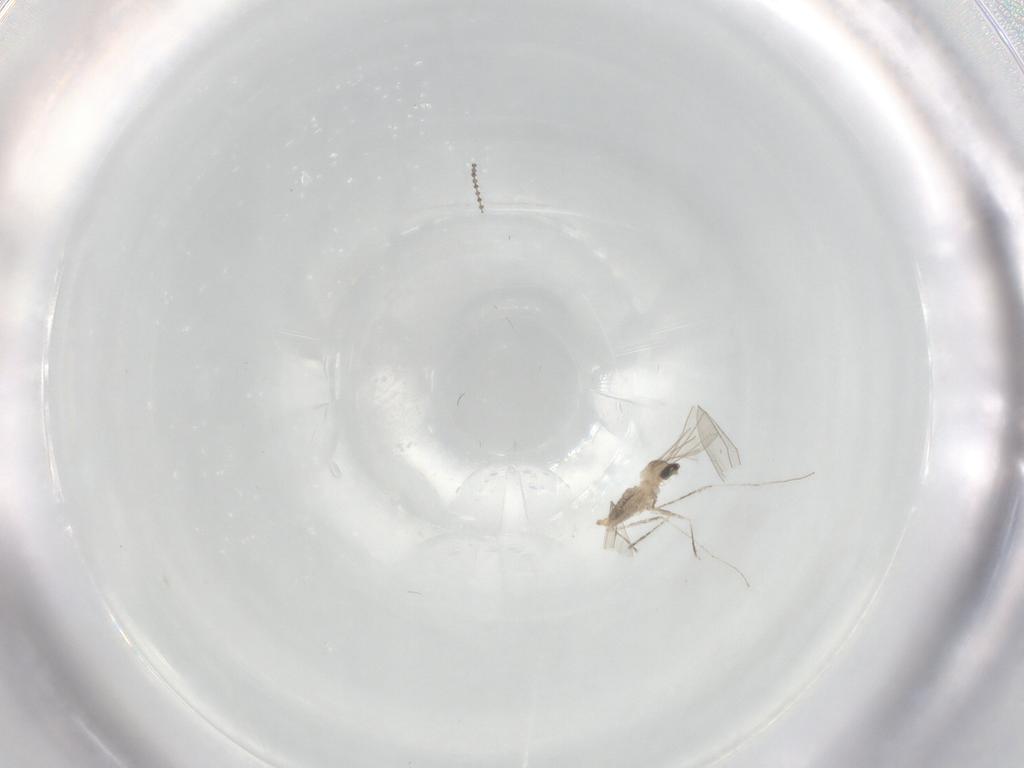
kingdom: Animalia
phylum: Arthropoda
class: Insecta
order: Diptera
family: Cecidomyiidae
